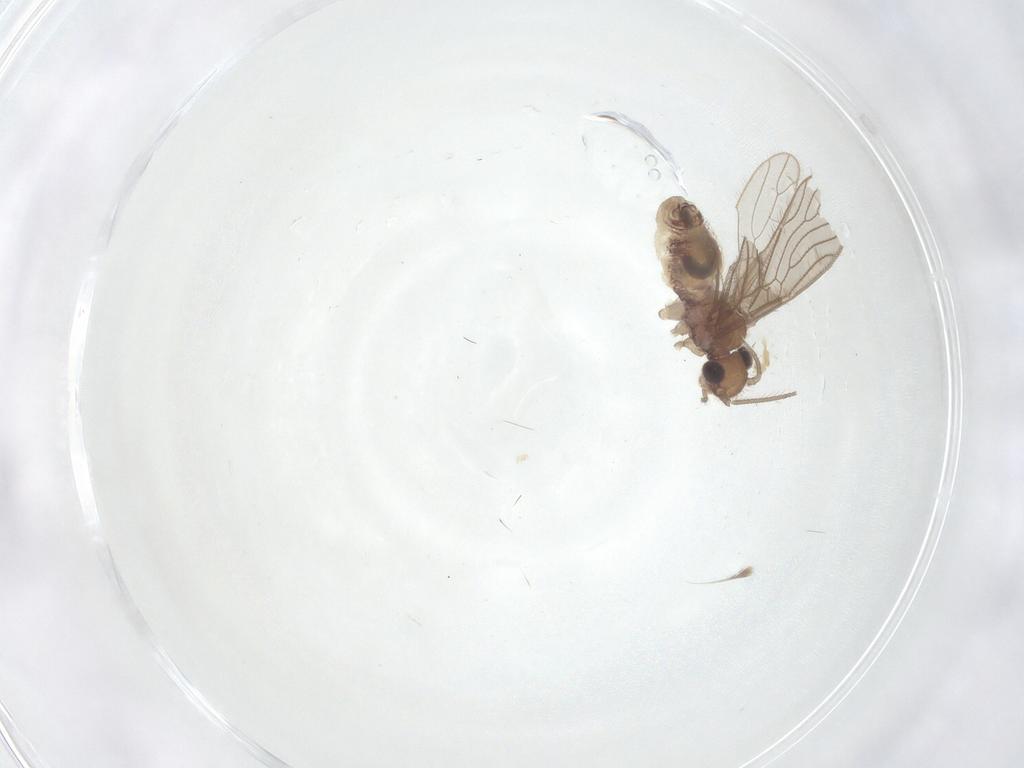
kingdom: Animalia
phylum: Arthropoda
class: Insecta
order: Psocodea
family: Cladiopsocidae
